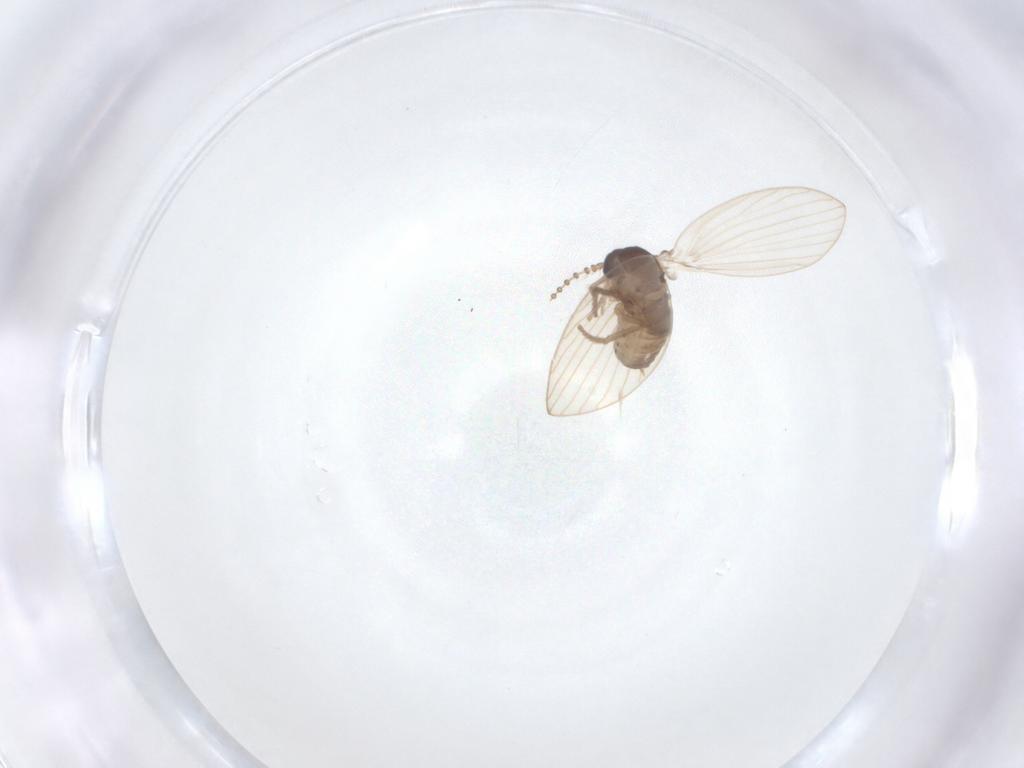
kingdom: Animalia
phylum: Arthropoda
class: Insecta
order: Diptera
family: Psychodidae
